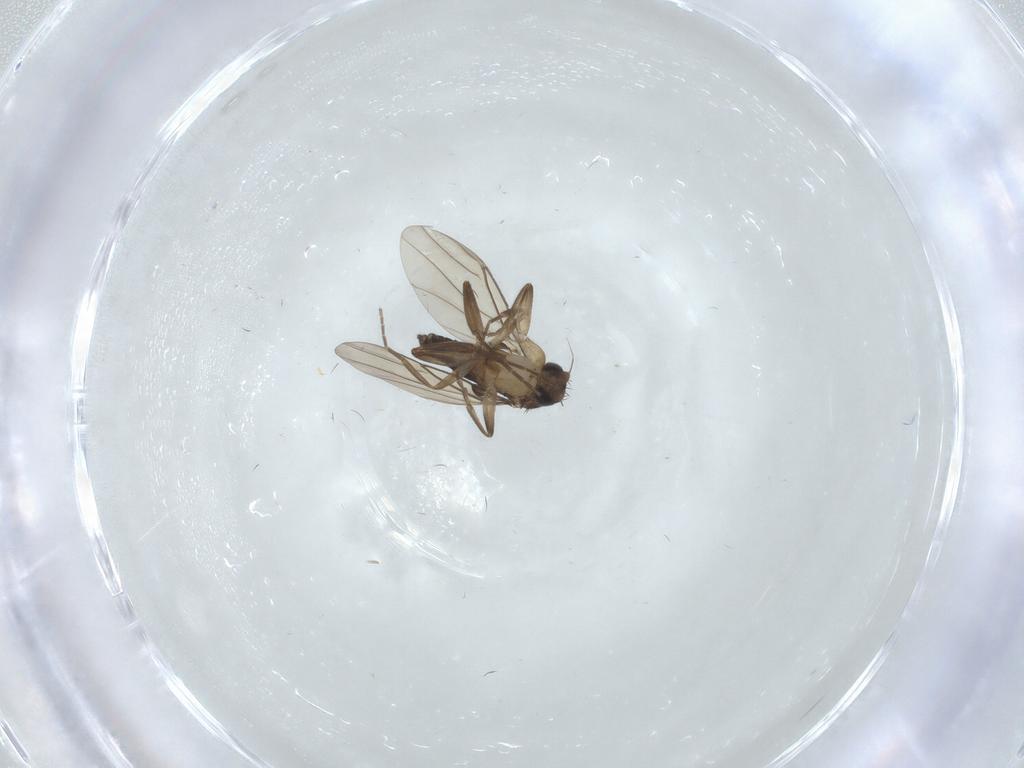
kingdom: Animalia
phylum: Arthropoda
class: Insecta
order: Diptera
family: Phoridae
